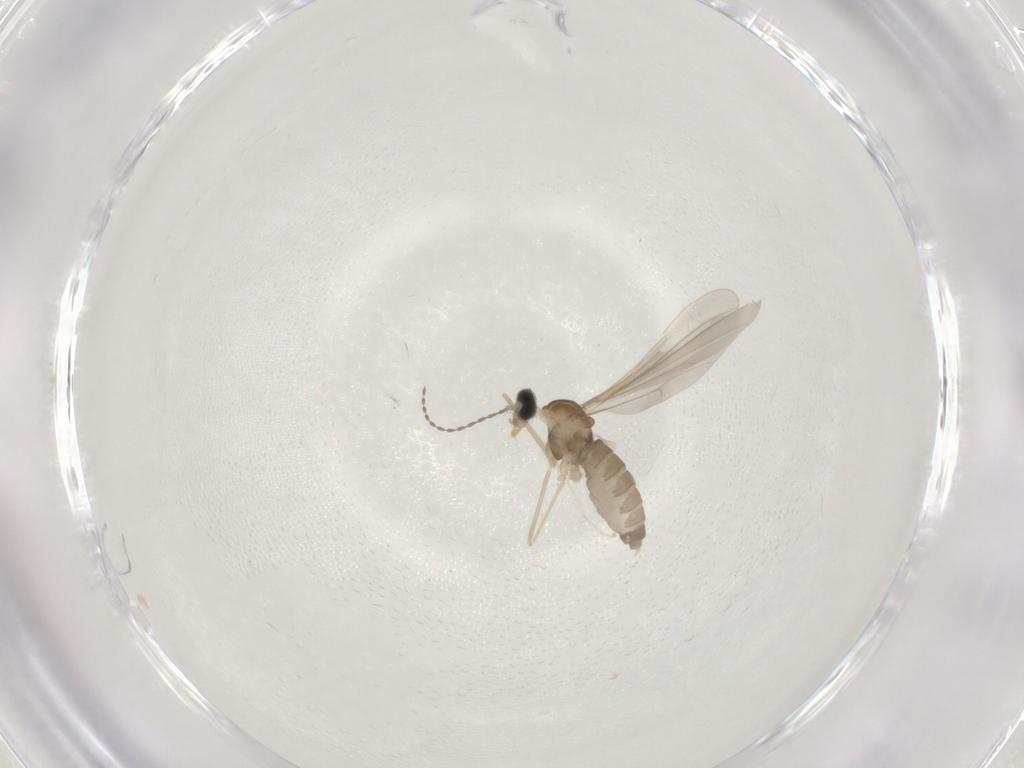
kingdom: Animalia
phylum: Arthropoda
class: Insecta
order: Diptera
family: Cecidomyiidae
